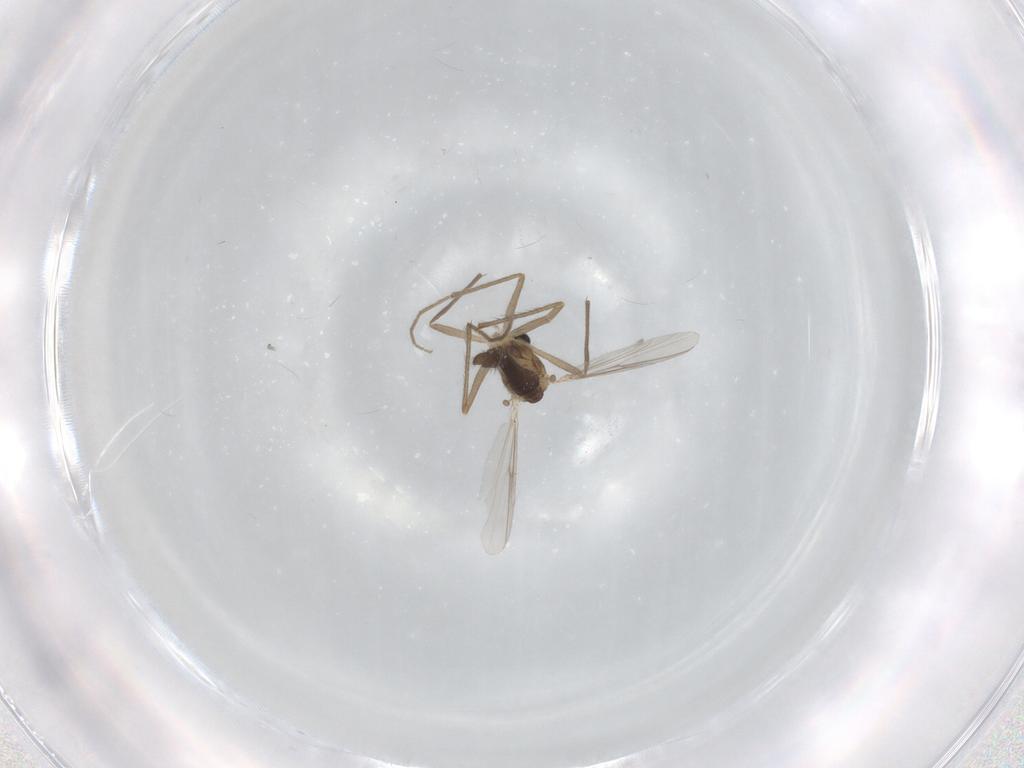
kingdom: Animalia
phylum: Arthropoda
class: Insecta
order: Diptera
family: Chironomidae
